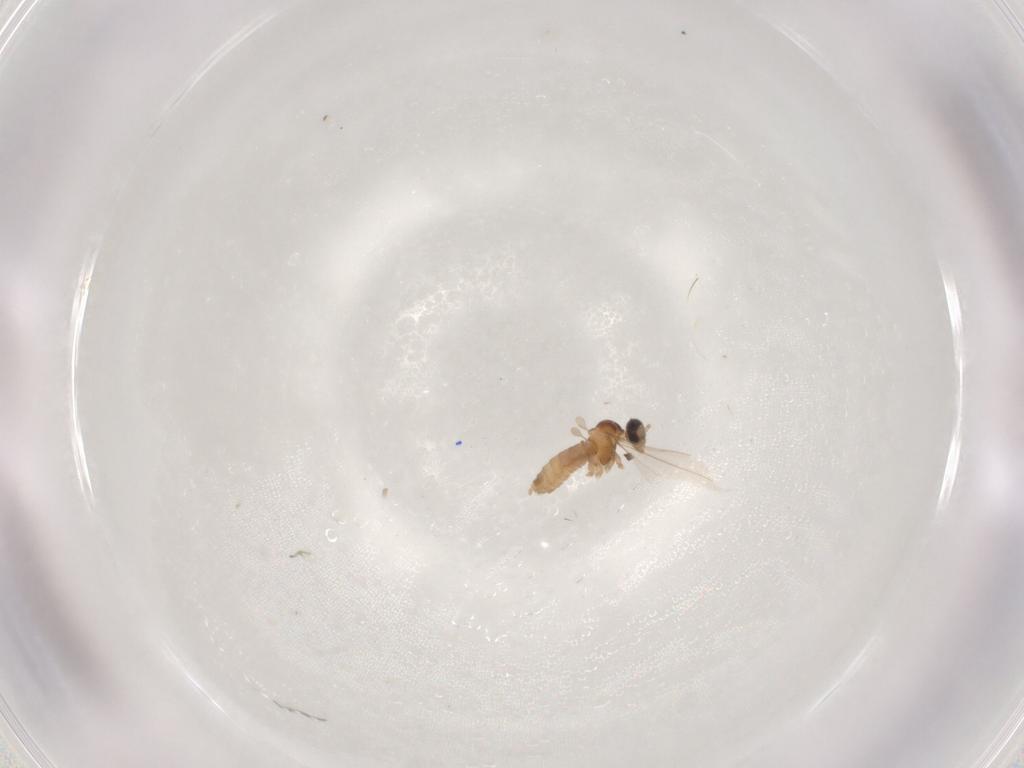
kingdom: Animalia
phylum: Arthropoda
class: Insecta
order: Diptera
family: Cecidomyiidae
